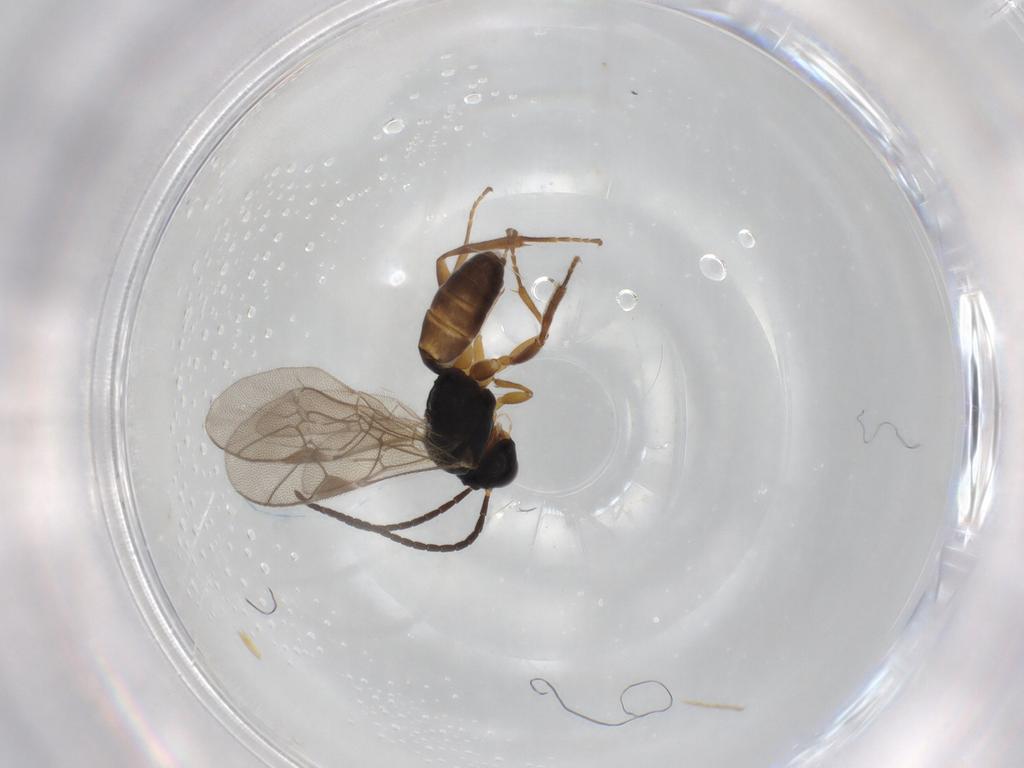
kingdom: Animalia
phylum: Arthropoda
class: Insecta
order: Hymenoptera
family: Ichneumonidae
